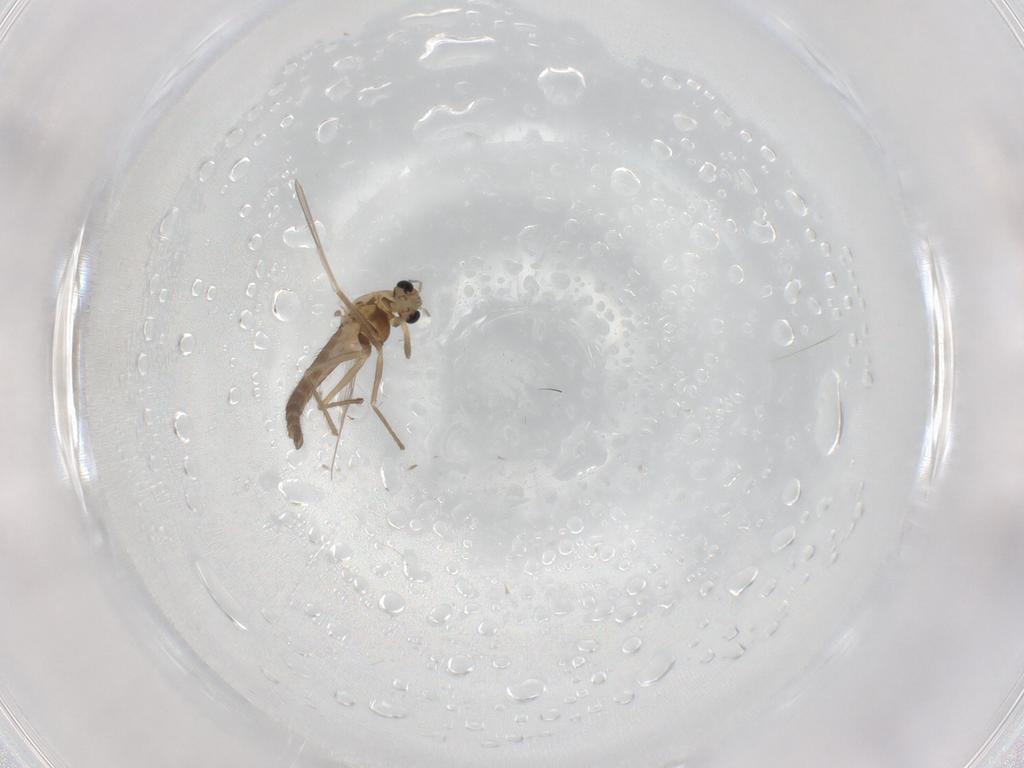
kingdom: Animalia
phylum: Arthropoda
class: Insecta
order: Diptera
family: Chironomidae
